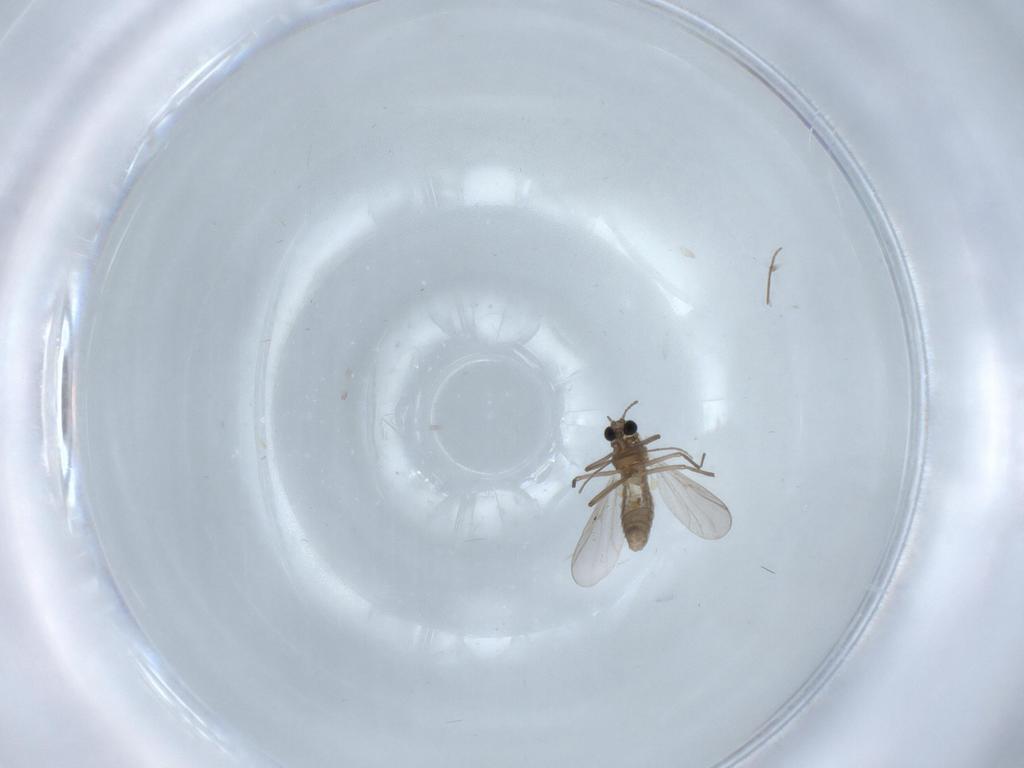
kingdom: Animalia
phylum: Arthropoda
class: Insecta
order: Diptera
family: Chironomidae
